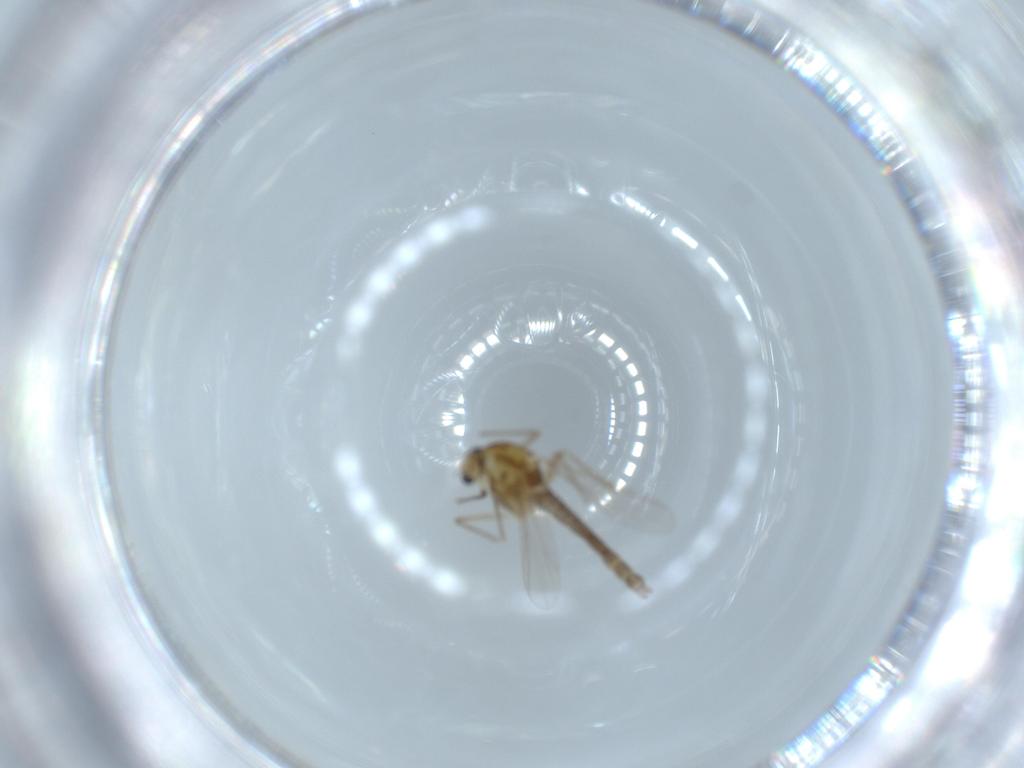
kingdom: Animalia
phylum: Arthropoda
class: Insecta
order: Diptera
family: Chironomidae
